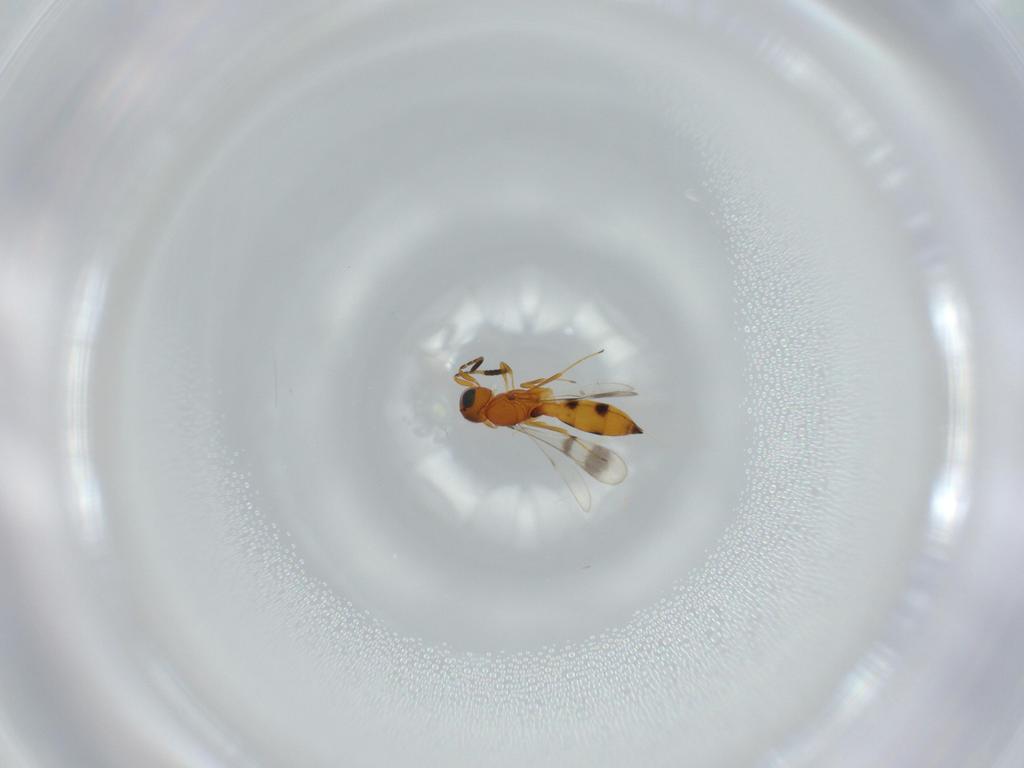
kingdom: Animalia
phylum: Arthropoda
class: Insecta
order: Hymenoptera
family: Scelionidae
